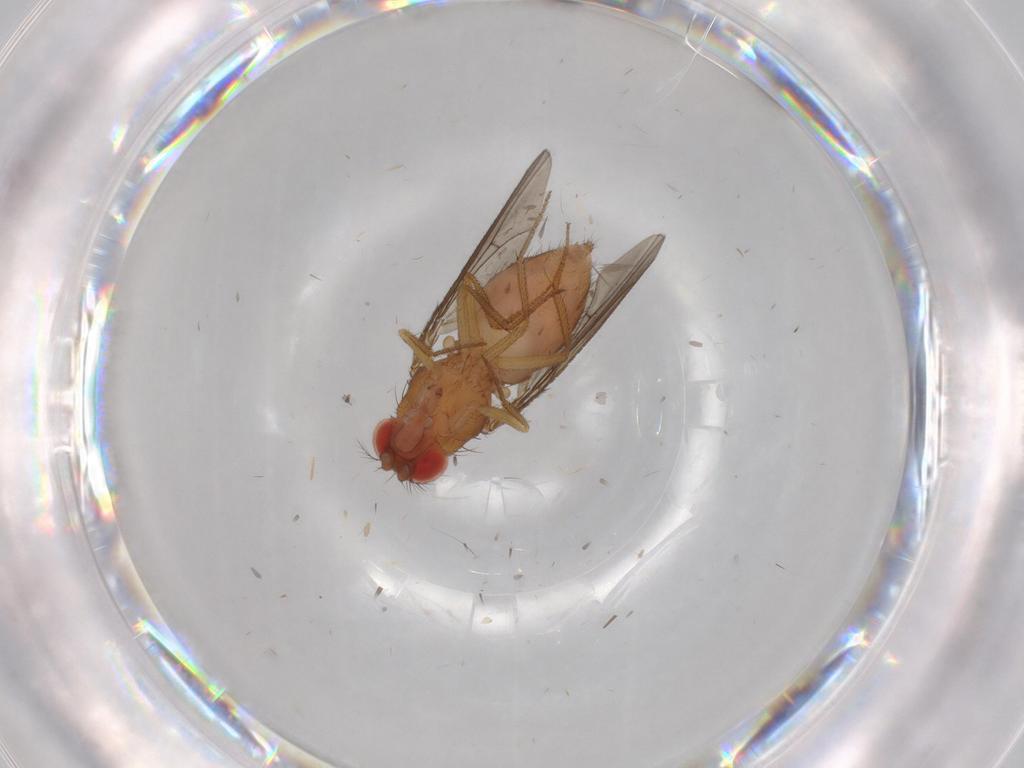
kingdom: Animalia
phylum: Arthropoda
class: Insecta
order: Diptera
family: Drosophilidae
